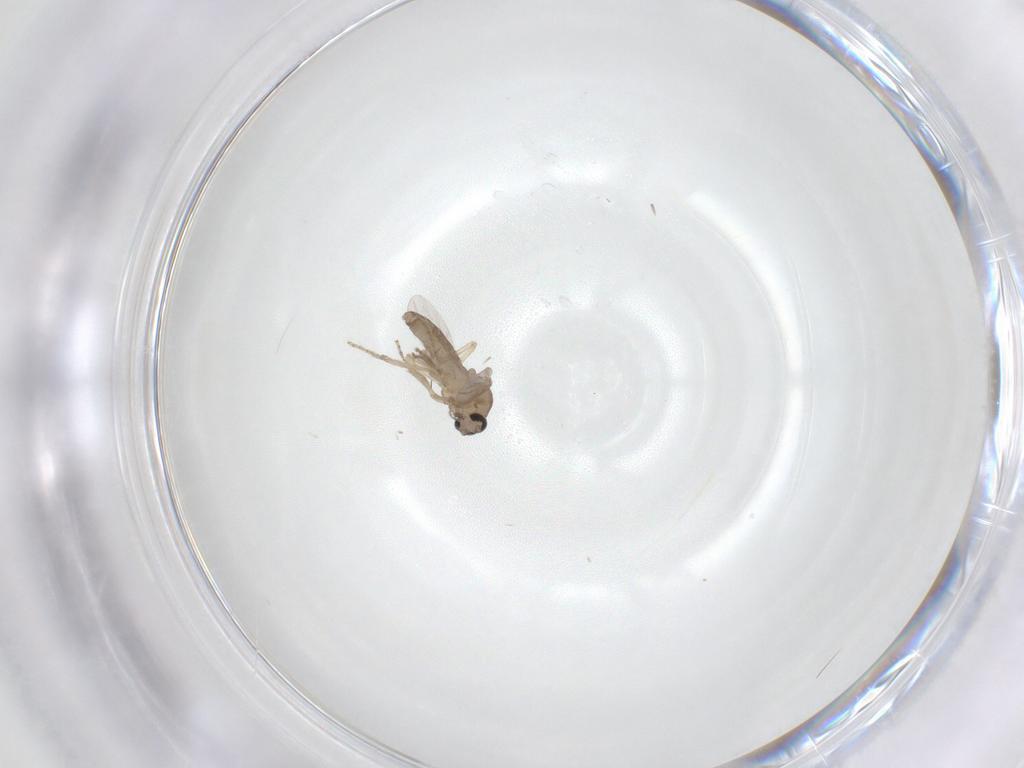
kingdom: Animalia
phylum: Arthropoda
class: Insecta
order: Diptera
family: Ceratopogonidae
